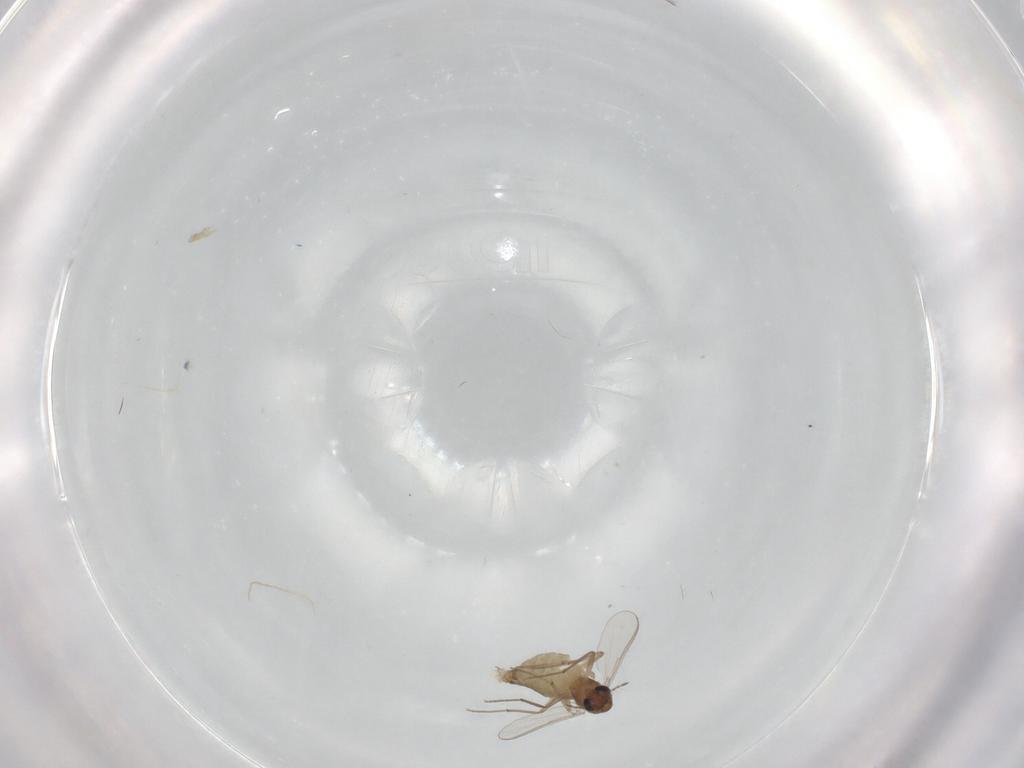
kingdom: Animalia
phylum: Arthropoda
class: Insecta
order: Diptera
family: Chironomidae
